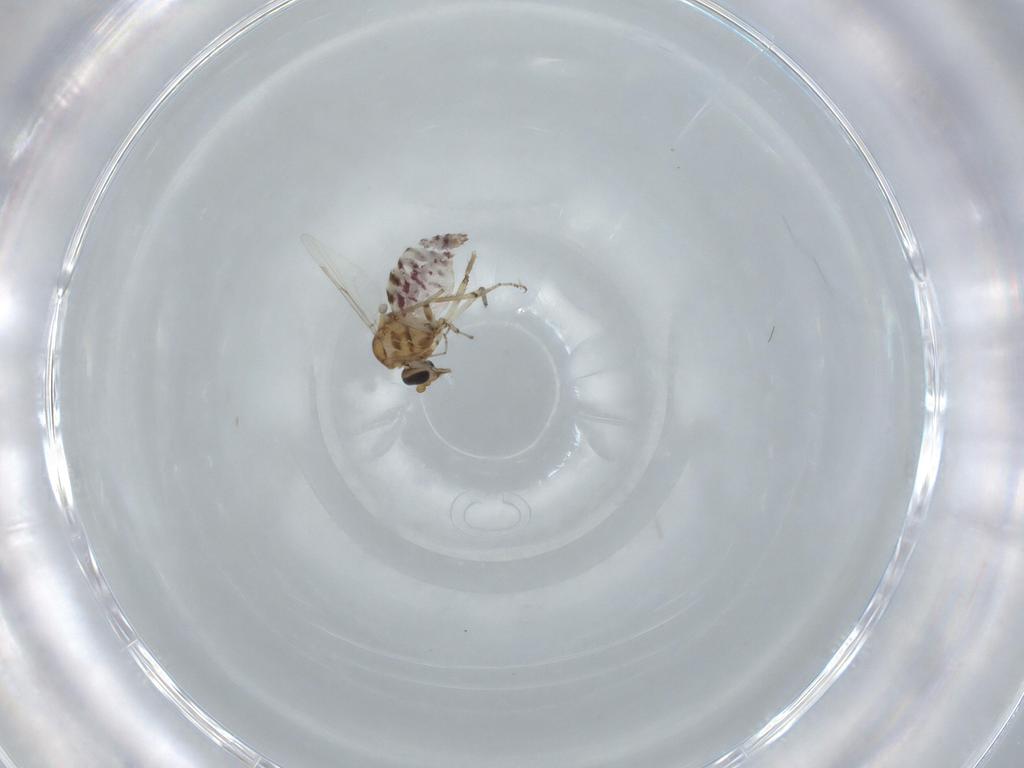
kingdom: Animalia
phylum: Arthropoda
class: Insecta
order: Diptera
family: Ceratopogonidae
